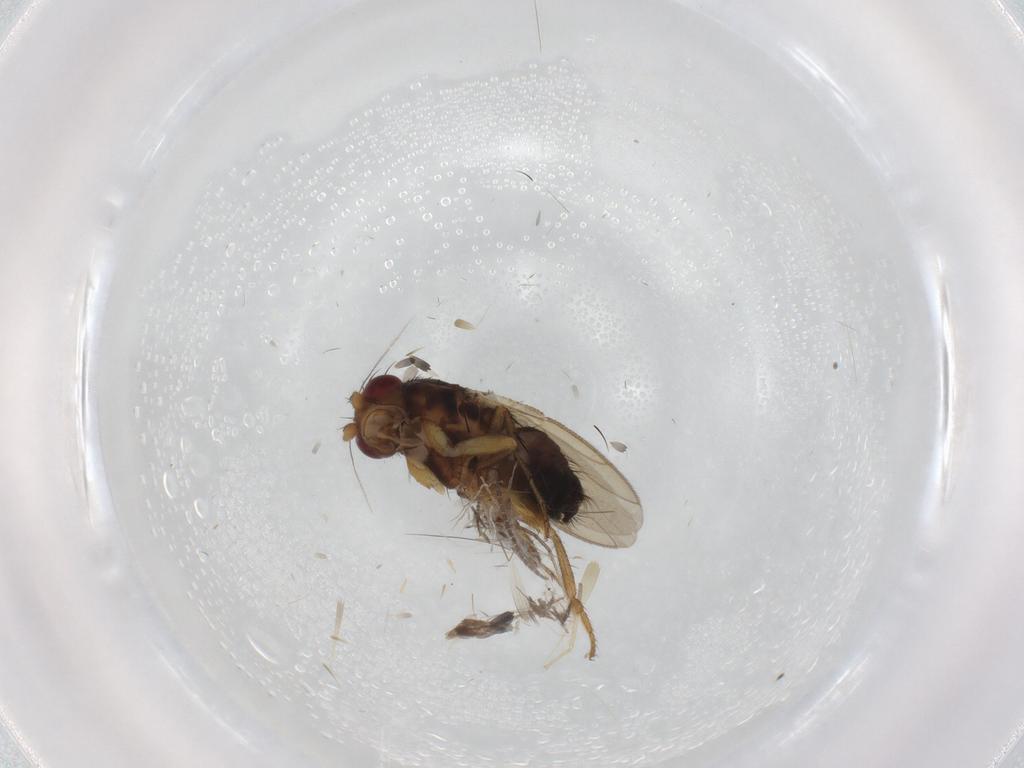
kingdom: Animalia
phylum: Arthropoda
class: Insecta
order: Diptera
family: Sphaeroceridae
